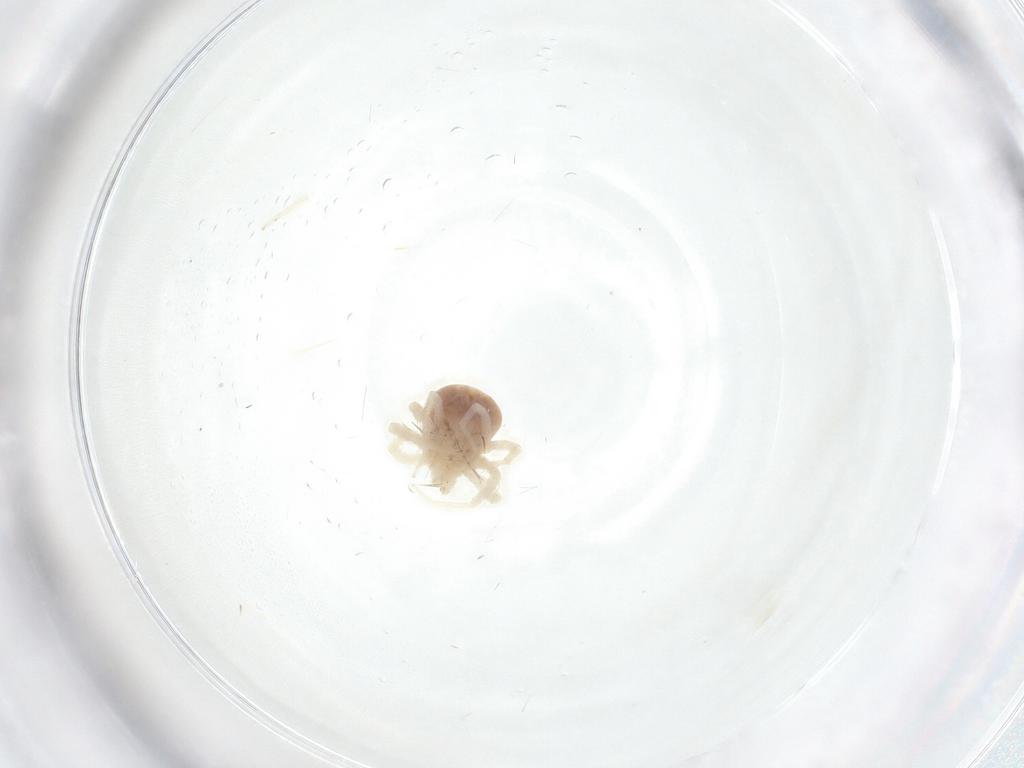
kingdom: Animalia
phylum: Arthropoda
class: Arachnida
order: Trombidiformes
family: Anystidae
